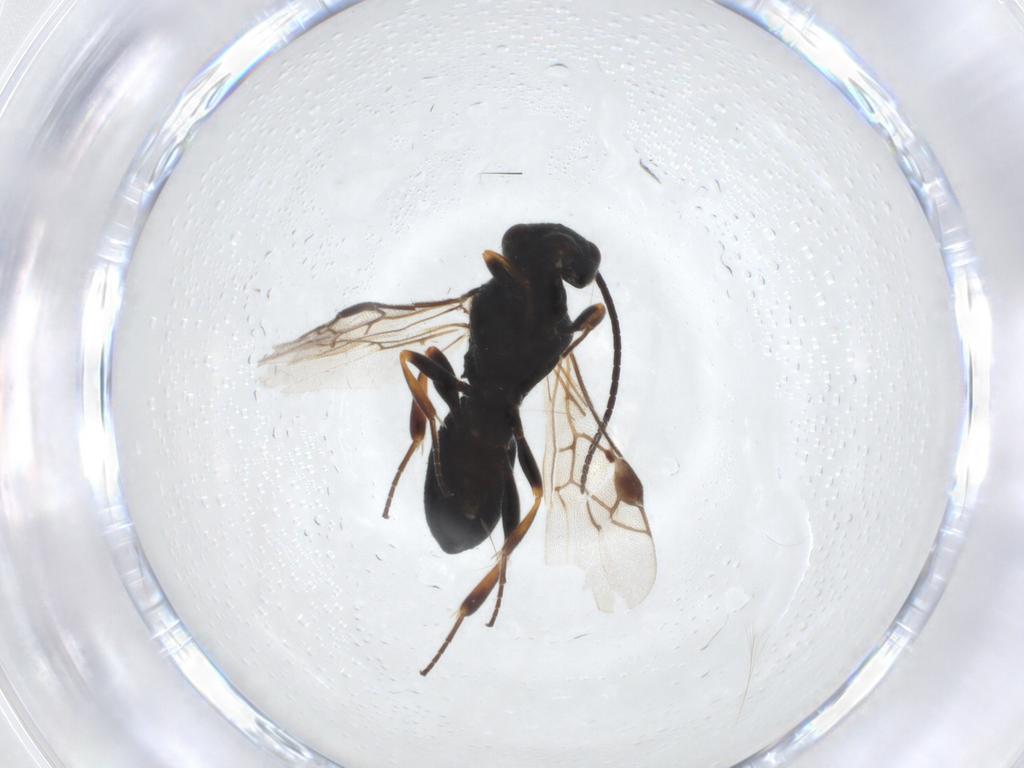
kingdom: Animalia
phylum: Arthropoda
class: Insecta
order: Hymenoptera
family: Braconidae
